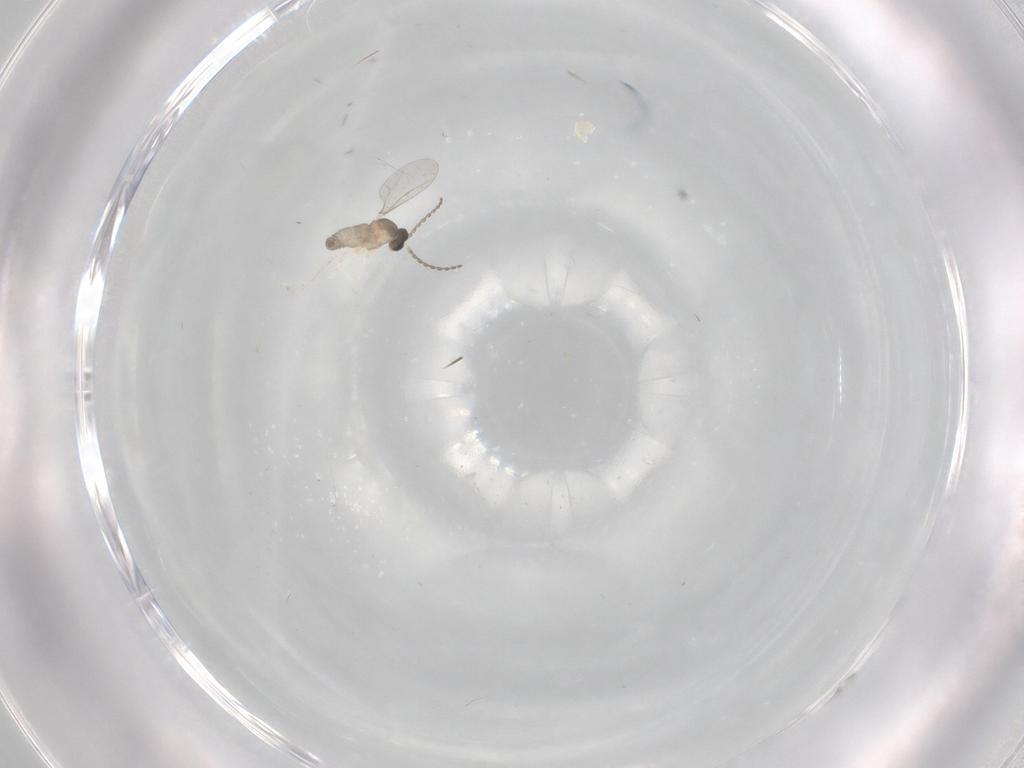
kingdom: Animalia
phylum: Arthropoda
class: Insecta
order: Diptera
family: Cecidomyiidae
